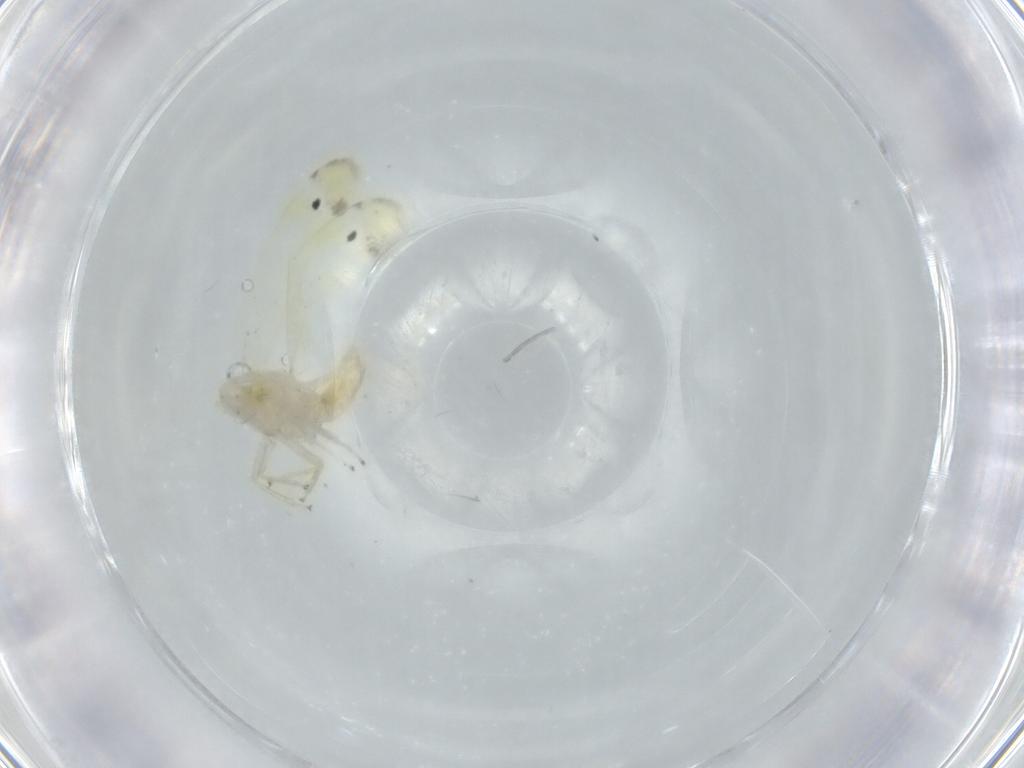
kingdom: Animalia
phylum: Arthropoda
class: Insecta
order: Hemiptera
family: Cicadellidae
